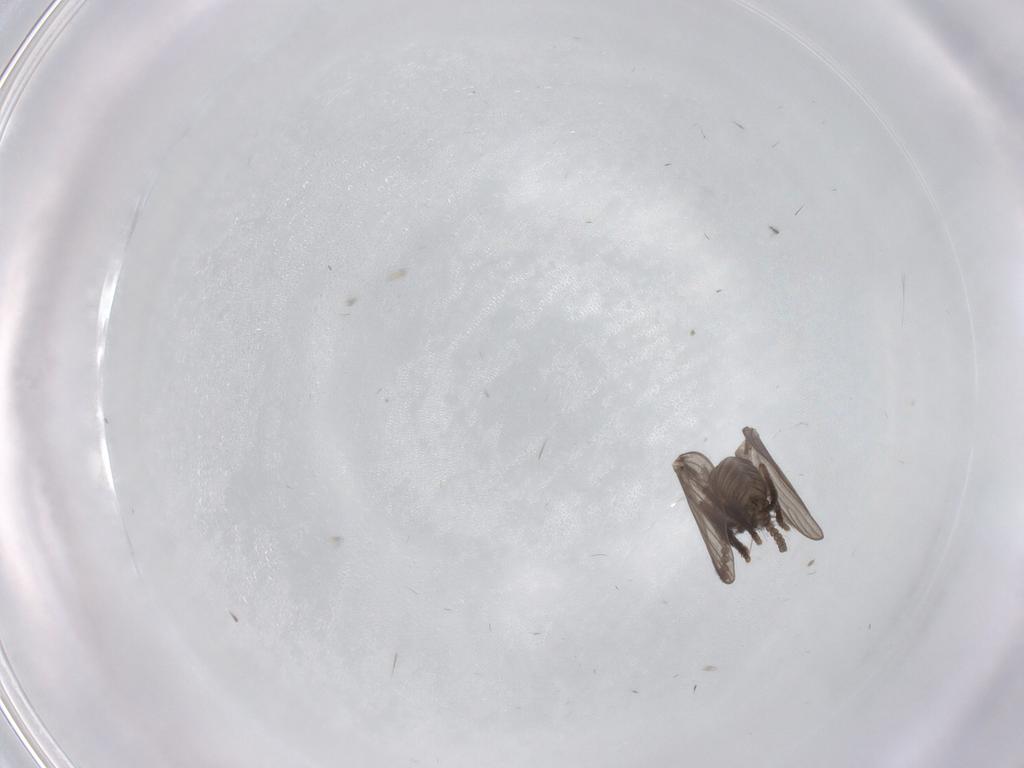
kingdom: Animalia
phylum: Arthropoda
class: Insecta
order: Diptera
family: Psychodidae
